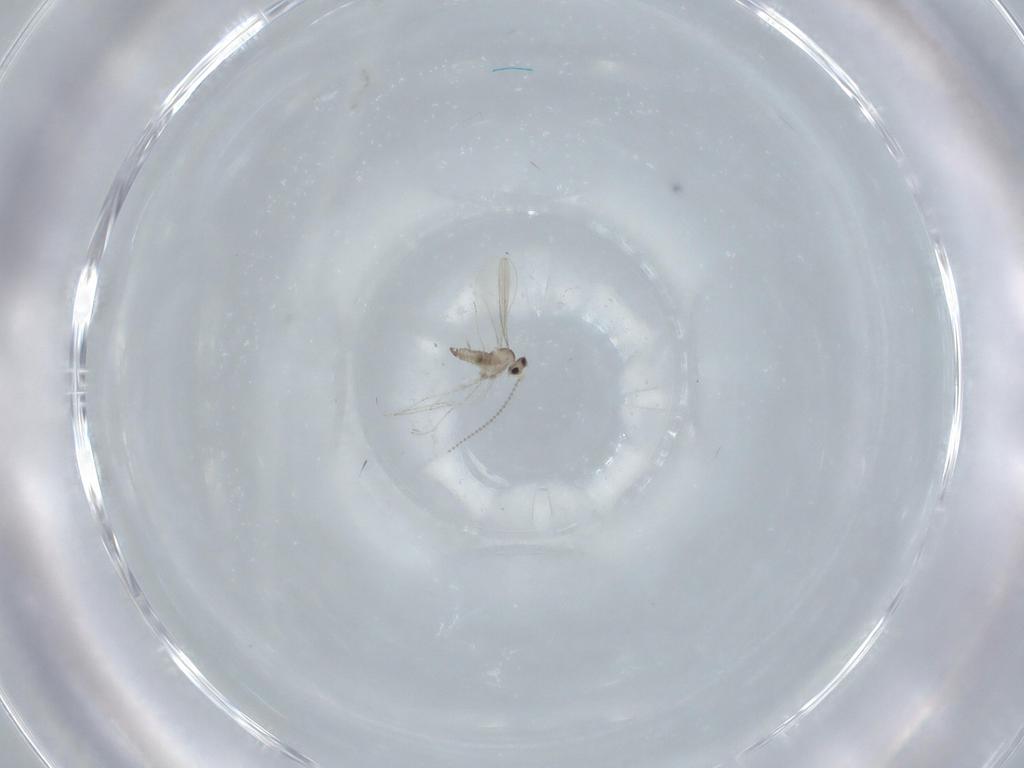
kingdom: Animalia
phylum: Arthropoda
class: Insecta
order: Diptera
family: Cecidomyiidae
